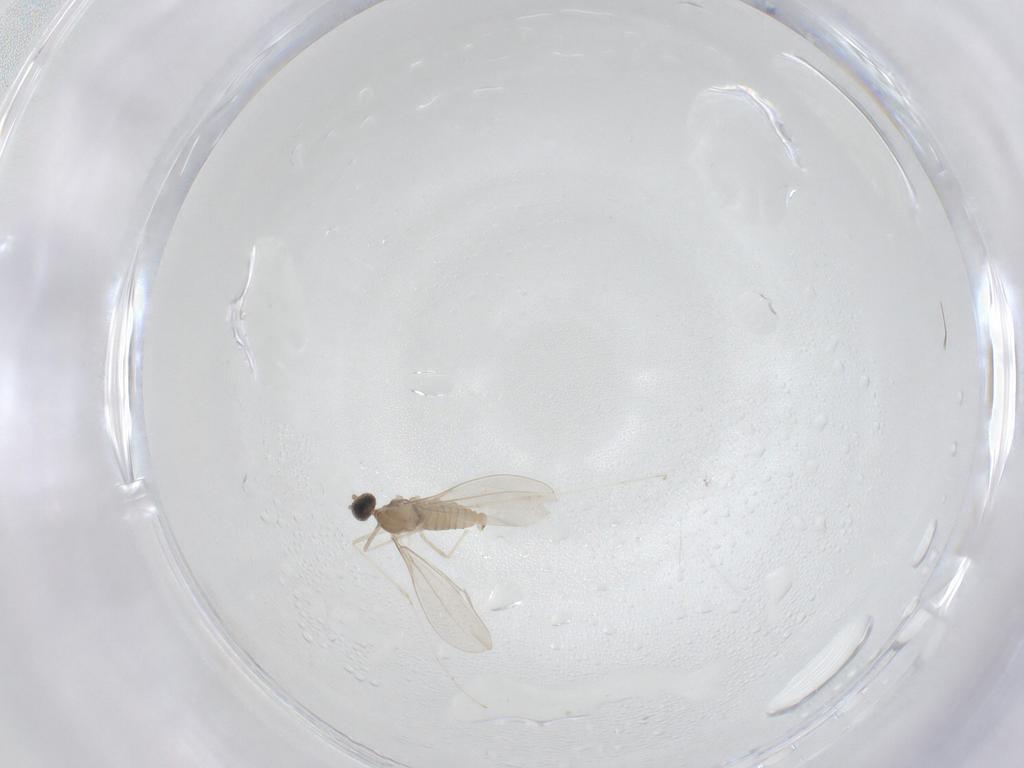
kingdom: Animalia
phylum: Arthropoda
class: Insecta
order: Diptera
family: Cecidomyiidae
